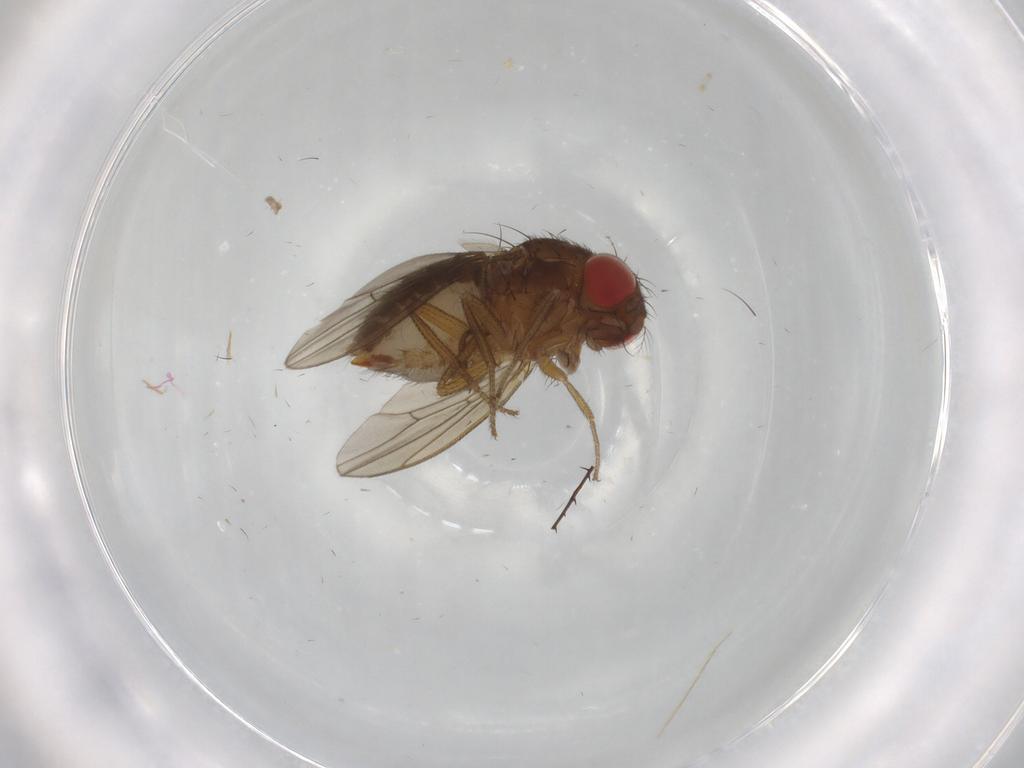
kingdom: Animalia
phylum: Arthropoda
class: Insecta
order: Diptera
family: Drosophilidae
